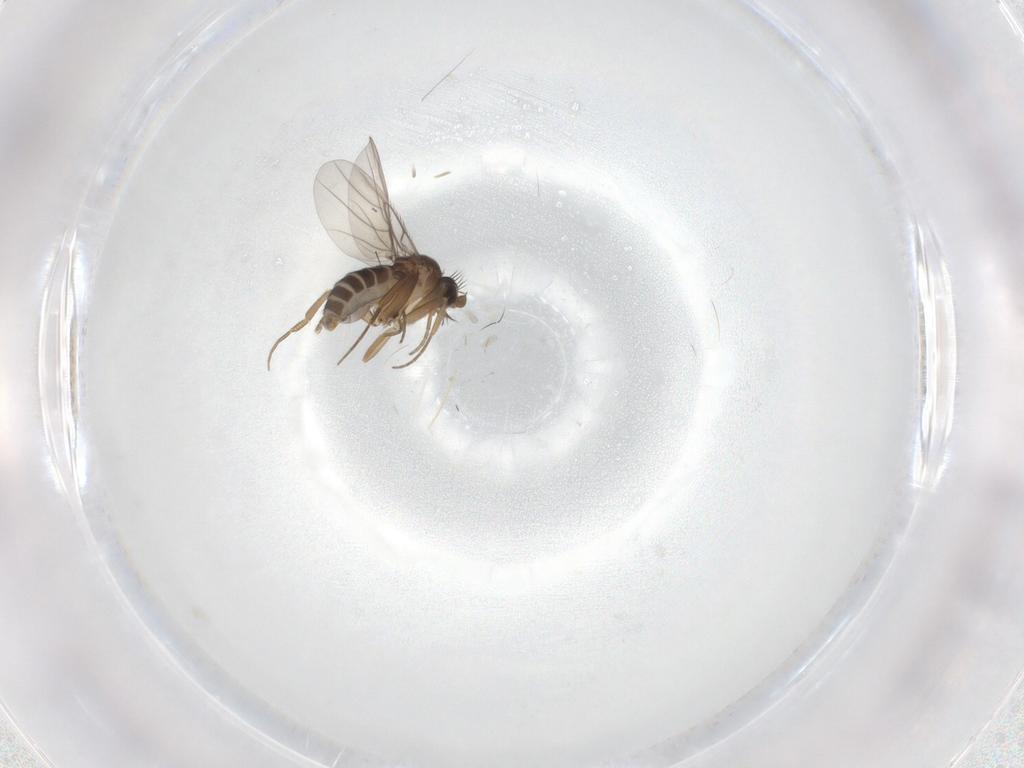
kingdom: Animalia
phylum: Arthropoda
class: Insecta
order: Diptera
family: Phoridae
